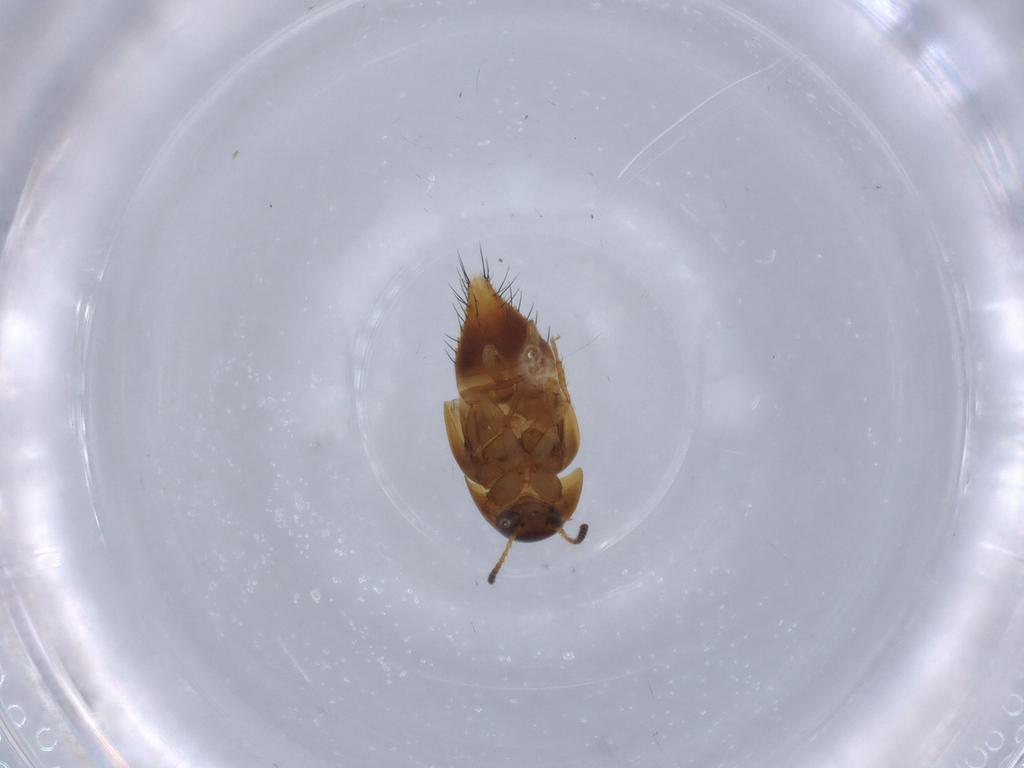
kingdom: Animalia
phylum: Arthropoda
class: Insecta
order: Coleoptera
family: Staphylinidae
